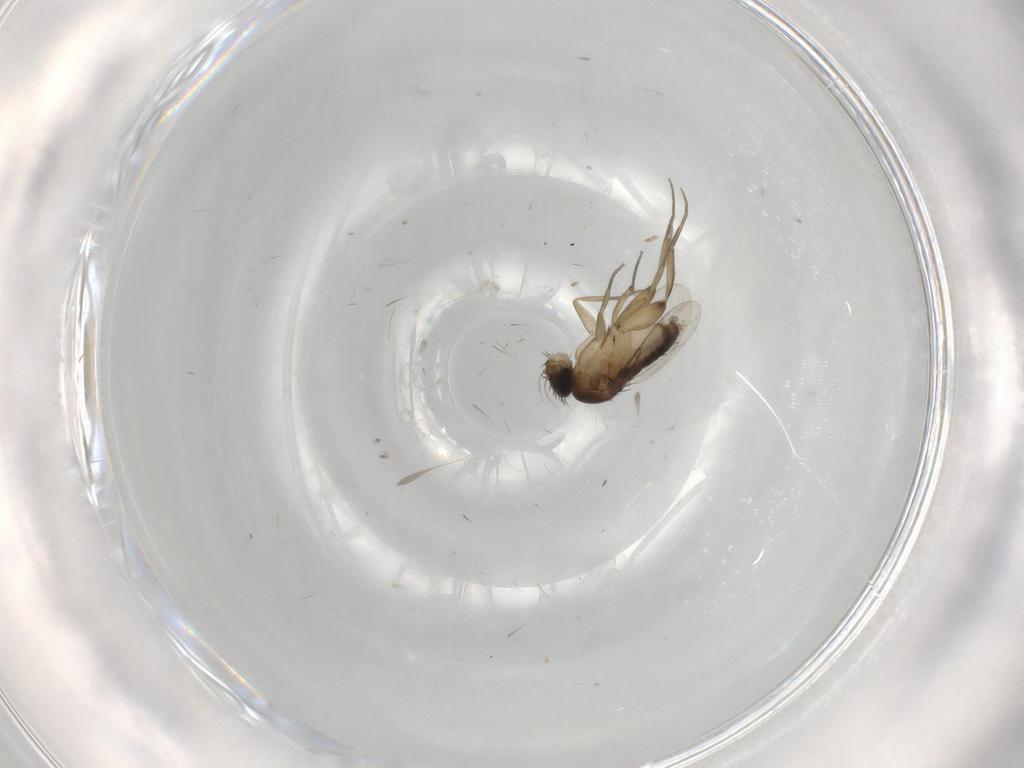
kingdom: Animalia
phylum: Arthropoda
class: Insecta
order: Diptera
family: Phoridae
